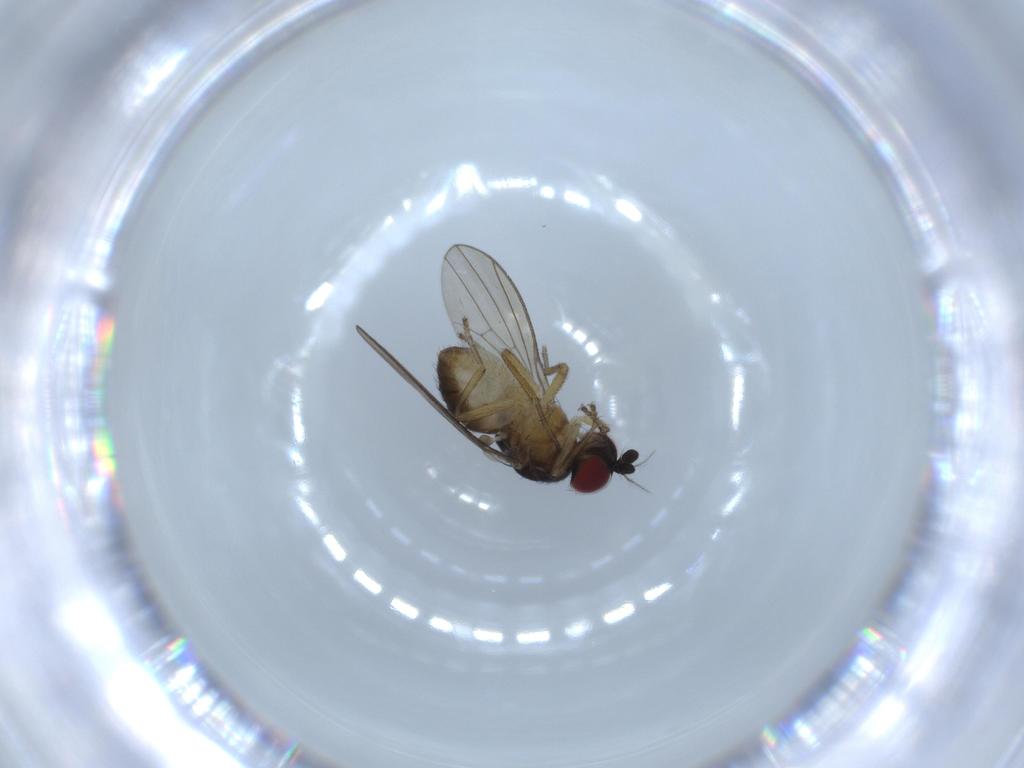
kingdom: Animalia
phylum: Arthropoda
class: Insecta
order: Diptera
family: Lauxaniidae
